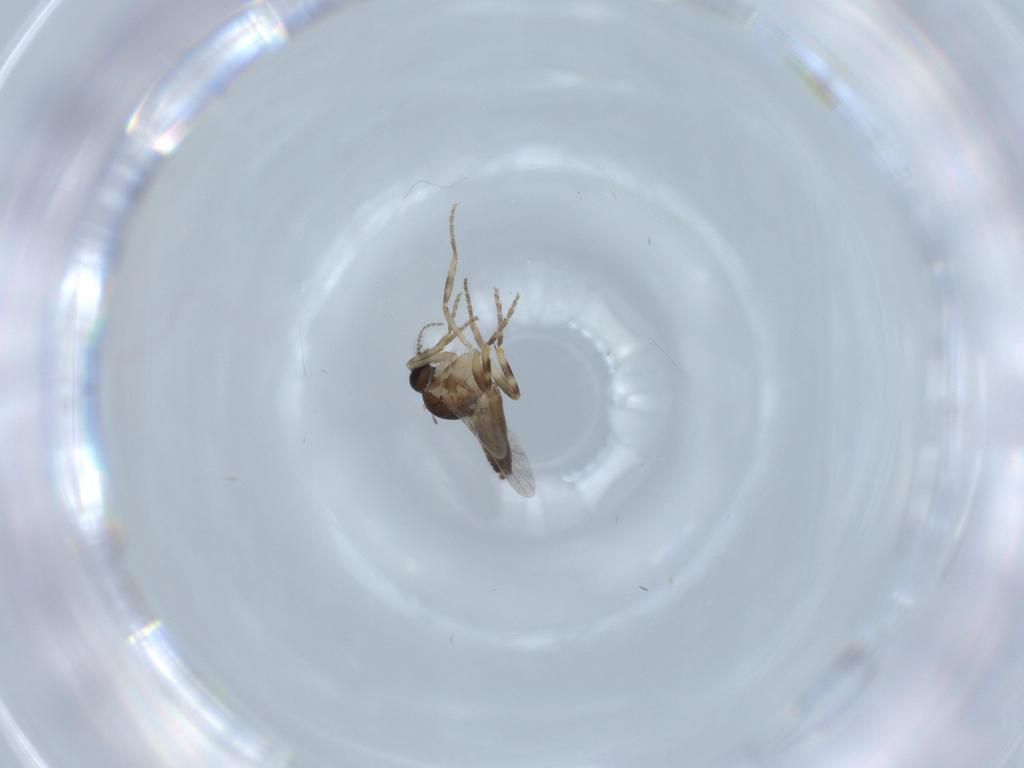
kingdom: Animalia
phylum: Arthropoda
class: Insecta
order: Diptera
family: Ceratopogonidae
